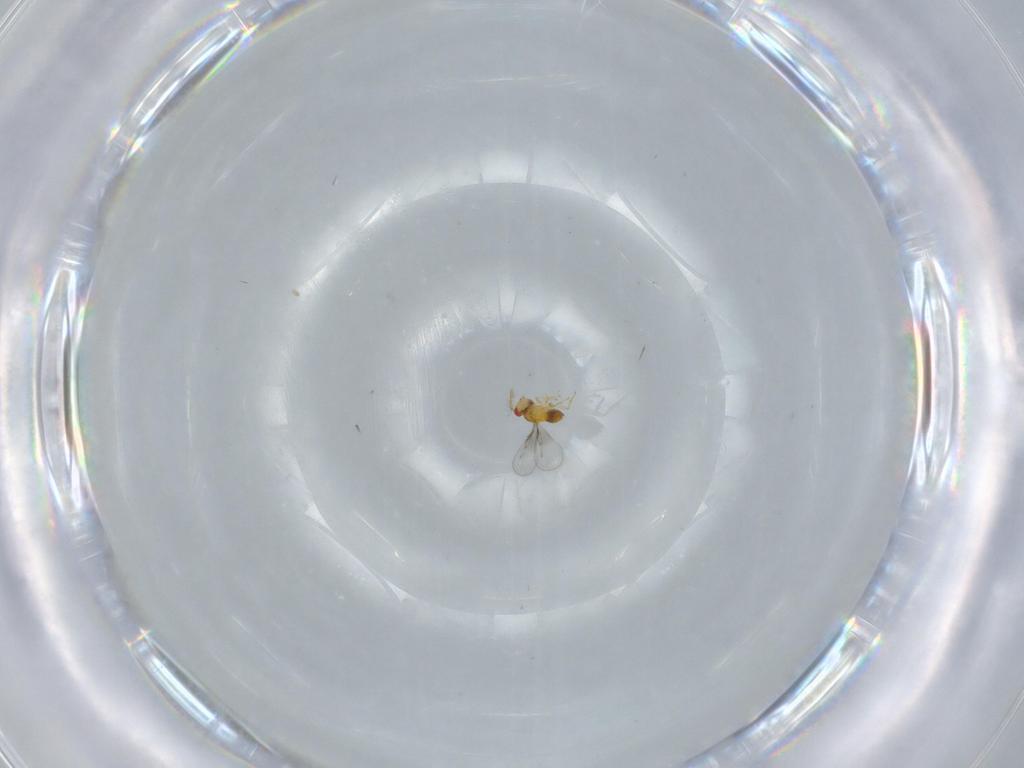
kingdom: Animalia
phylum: Arthropoda
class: Insecta
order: Hymenoptera
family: Trichogrammatidae
